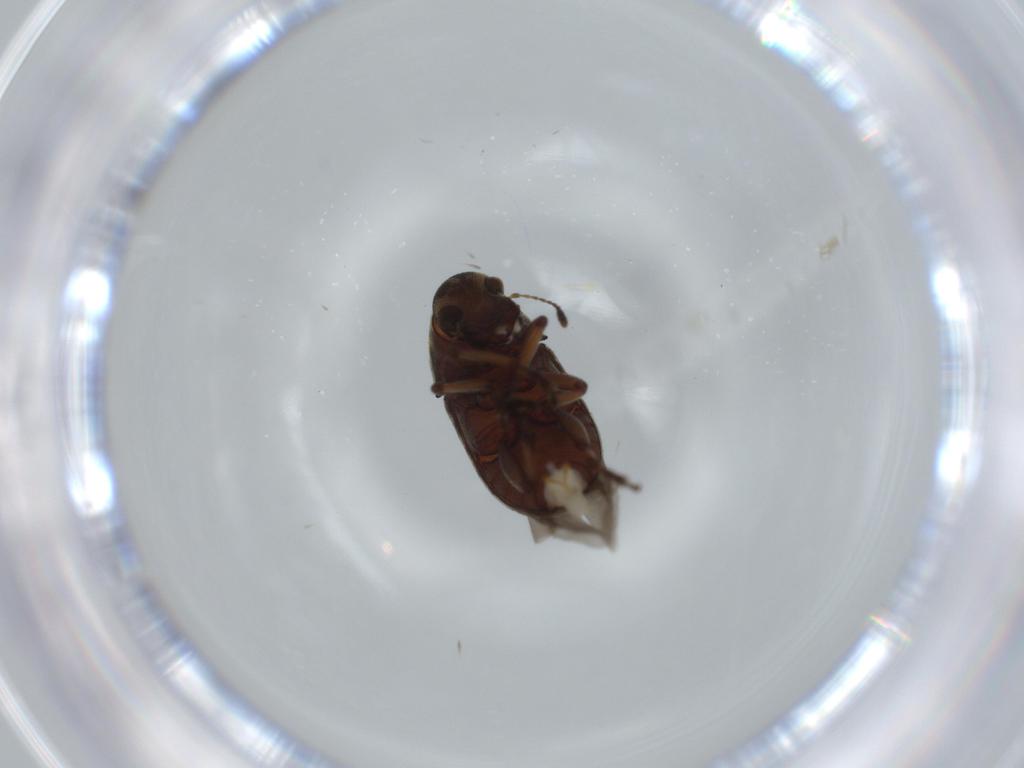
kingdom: Animalia
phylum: Arthropoda
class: Insecta
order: Coleoptera
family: Anthribidae
